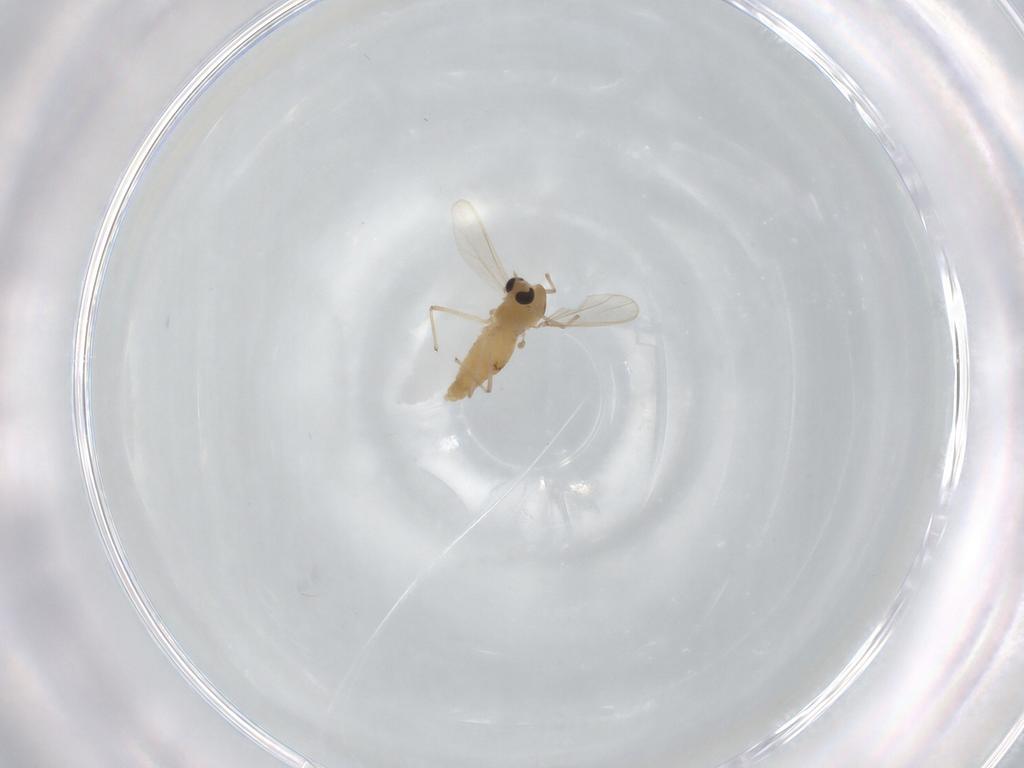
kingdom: Animalia
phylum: Arthropoda
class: Insecta
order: Diptera
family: Chironomidae
